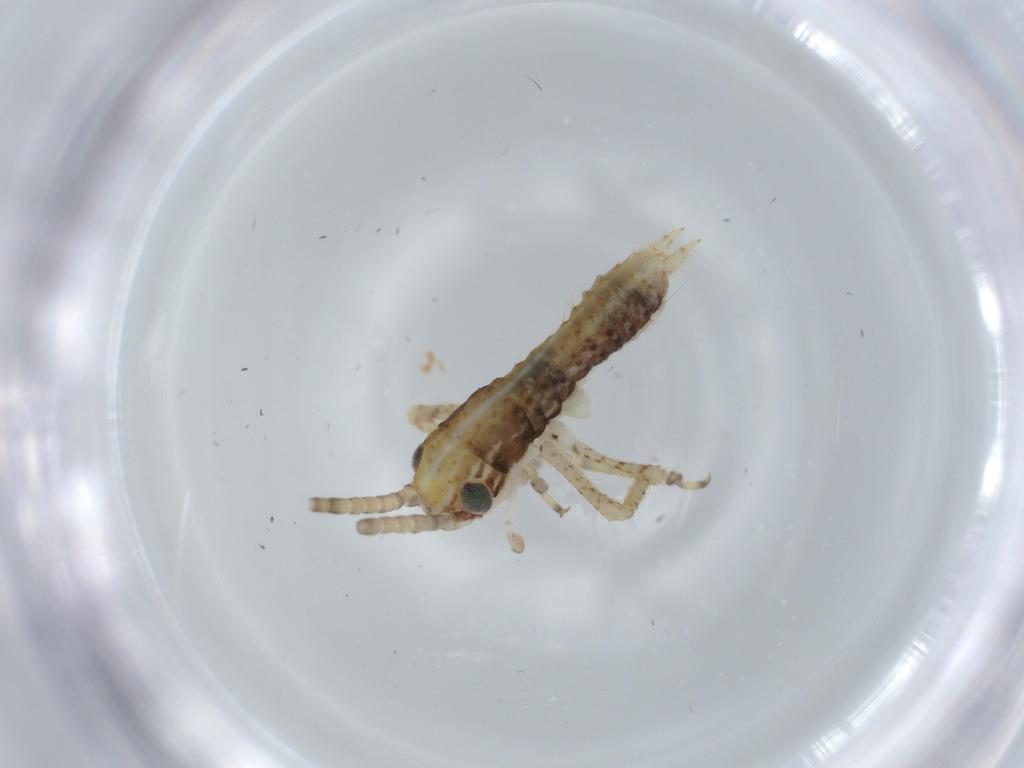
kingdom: Animalia
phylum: Arthropoda
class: Insecta
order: Orthoptera
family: Gryllidae
